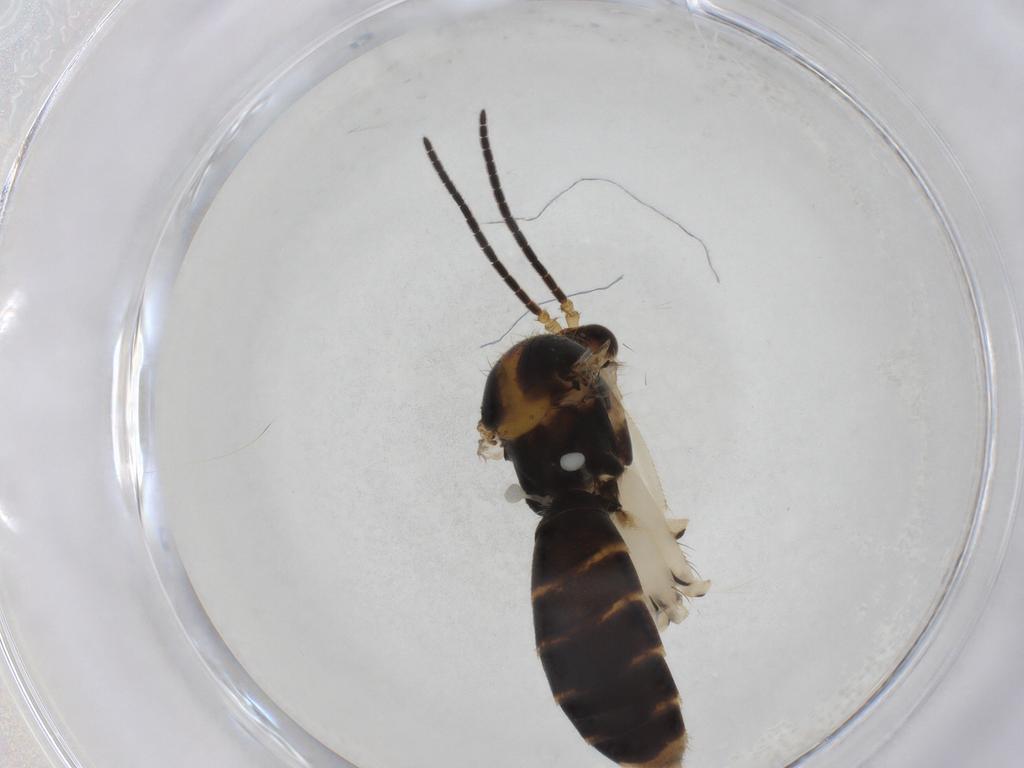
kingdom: Animalia
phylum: Arthropoda
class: Insecta
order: Diptera
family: Mycetophilidae
